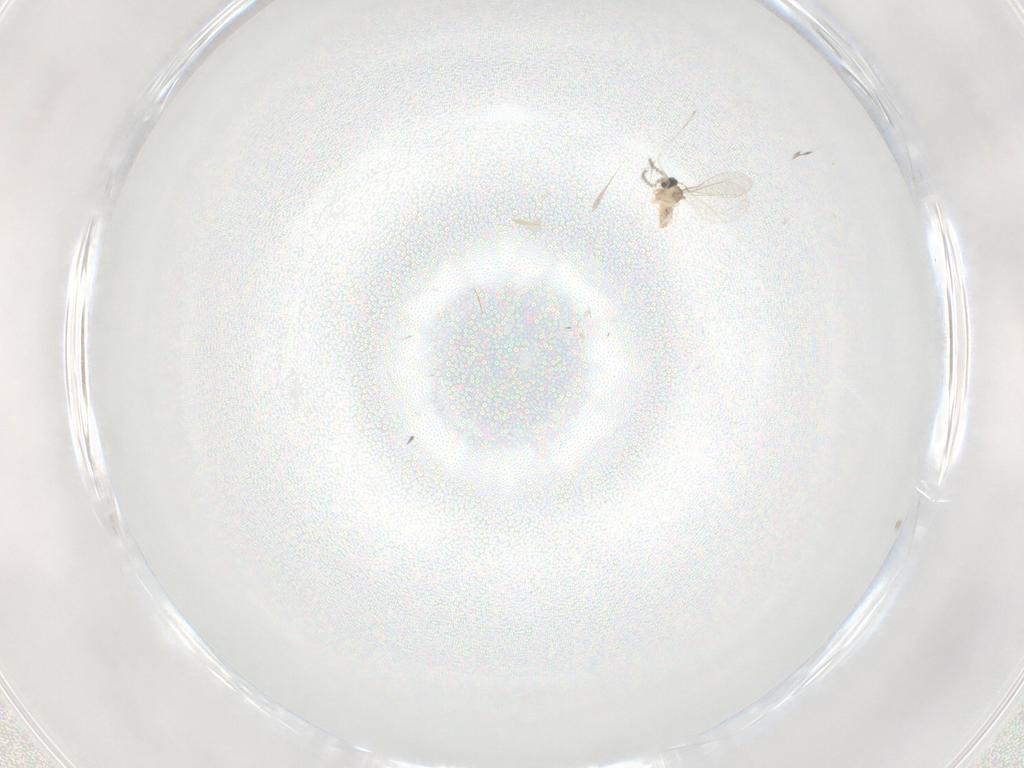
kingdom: Animalia
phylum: Arthropoda
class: Insecta
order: Diptera
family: Cecidomyiidae
